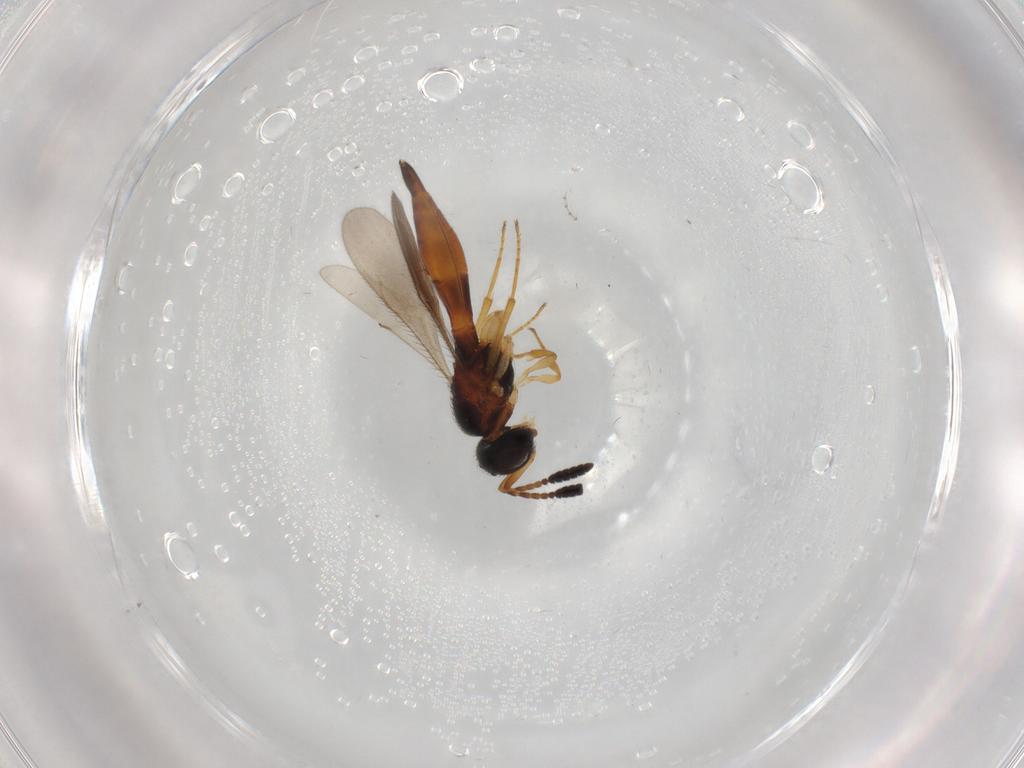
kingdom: Animalia
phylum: Arthropoda
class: Insecta
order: Hymenoptera
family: Scelionidae
